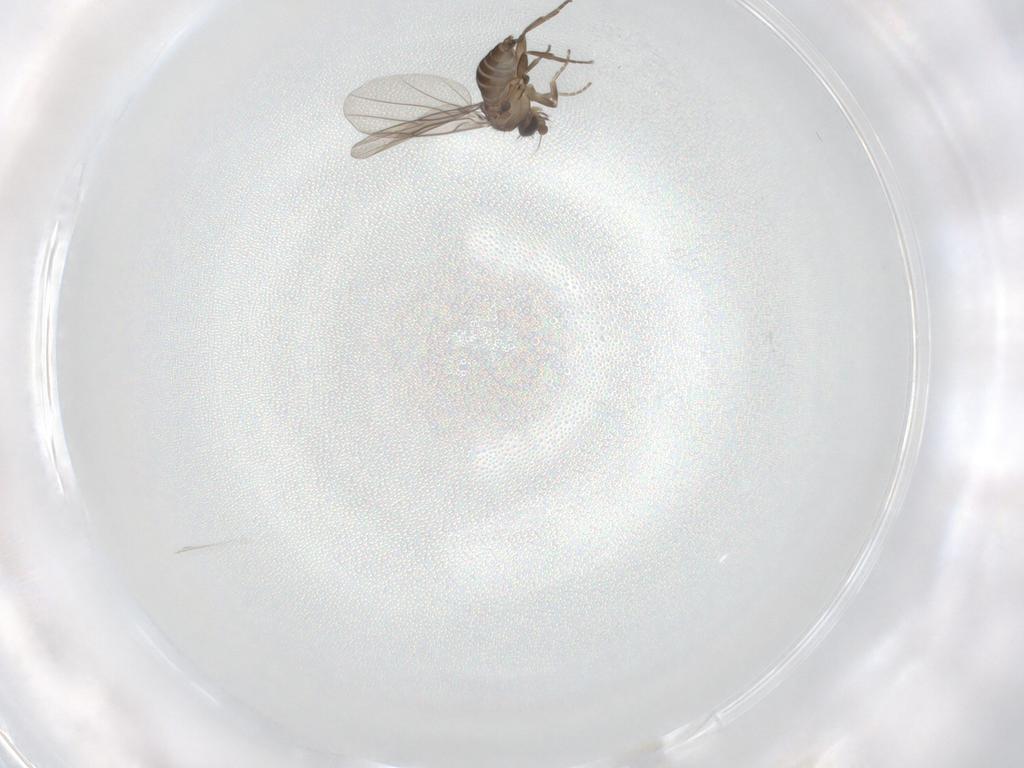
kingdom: Animalia
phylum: Arthropoda
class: Insecta
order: Diptera
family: Phoridae
